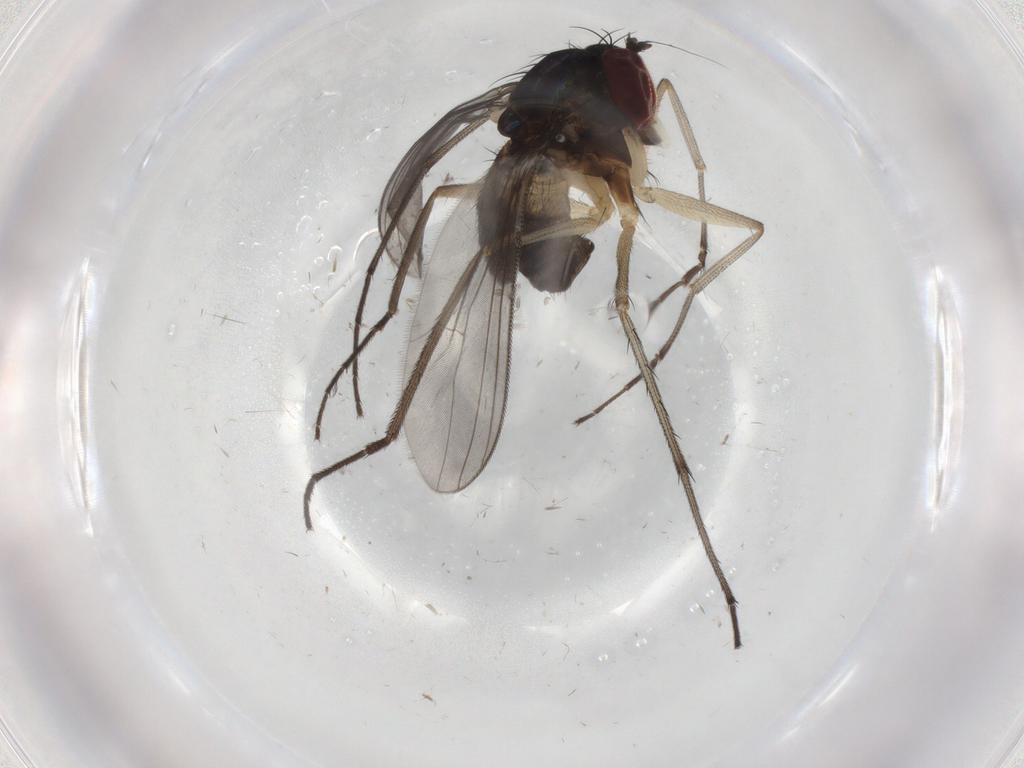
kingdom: Animalia
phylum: Arthropoda
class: Insecta
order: Diptera
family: Dolichopodidae
